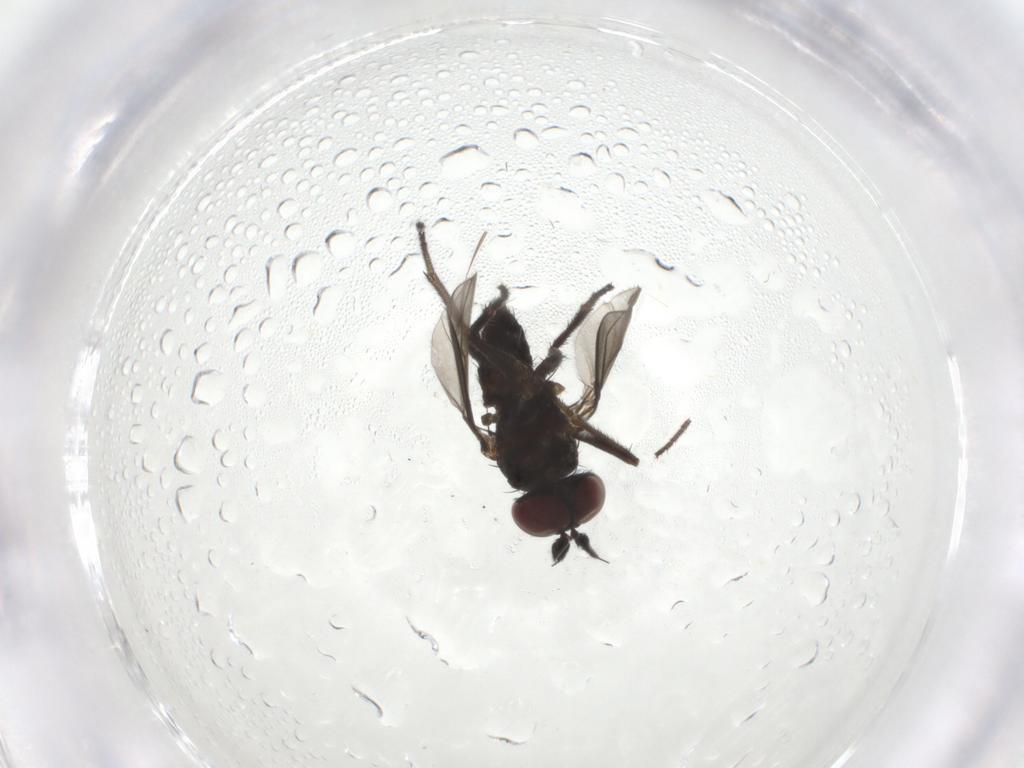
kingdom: Animalia
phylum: Arthropoda
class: Insecta
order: Diptera
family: Dolichopodidae
